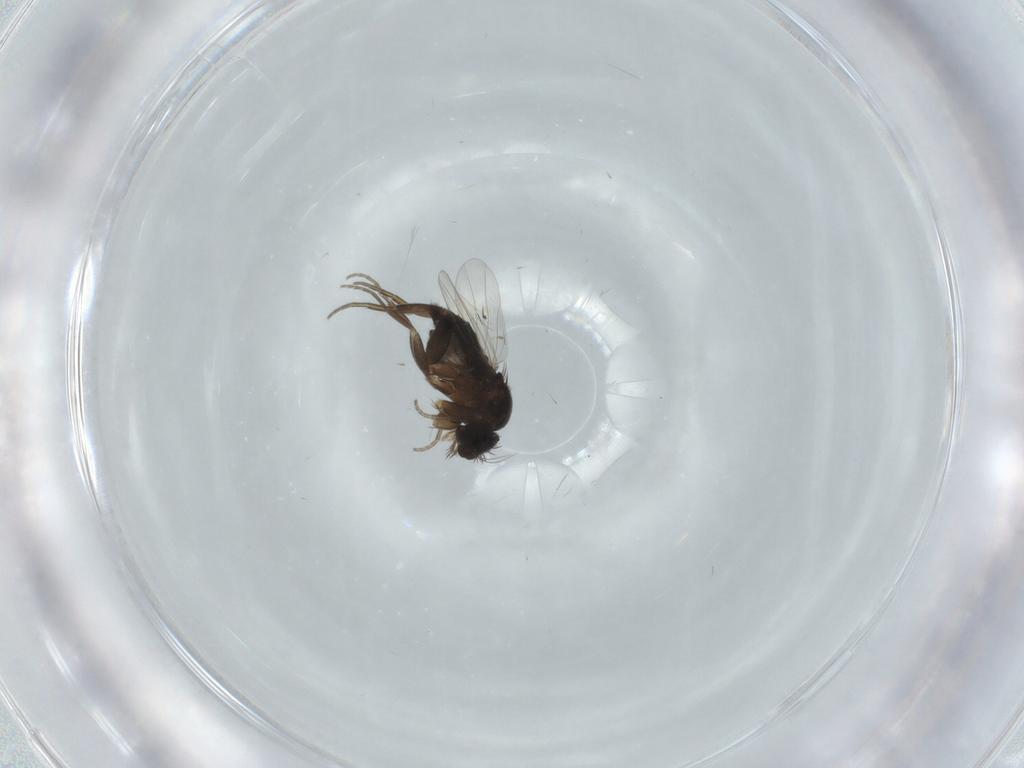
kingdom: Animalia
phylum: Arthropoda
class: Insecta
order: Diptera
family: Phoridae
